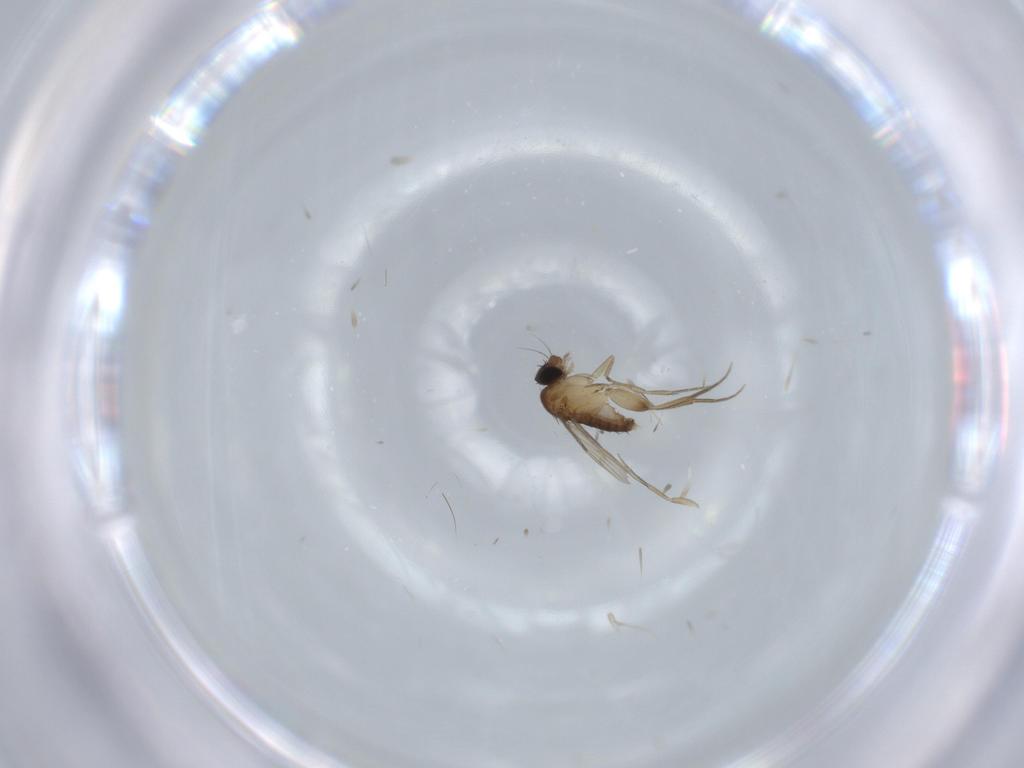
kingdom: Animalia
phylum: Arthropoda
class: Insecta
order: Diptera
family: Phoridae
